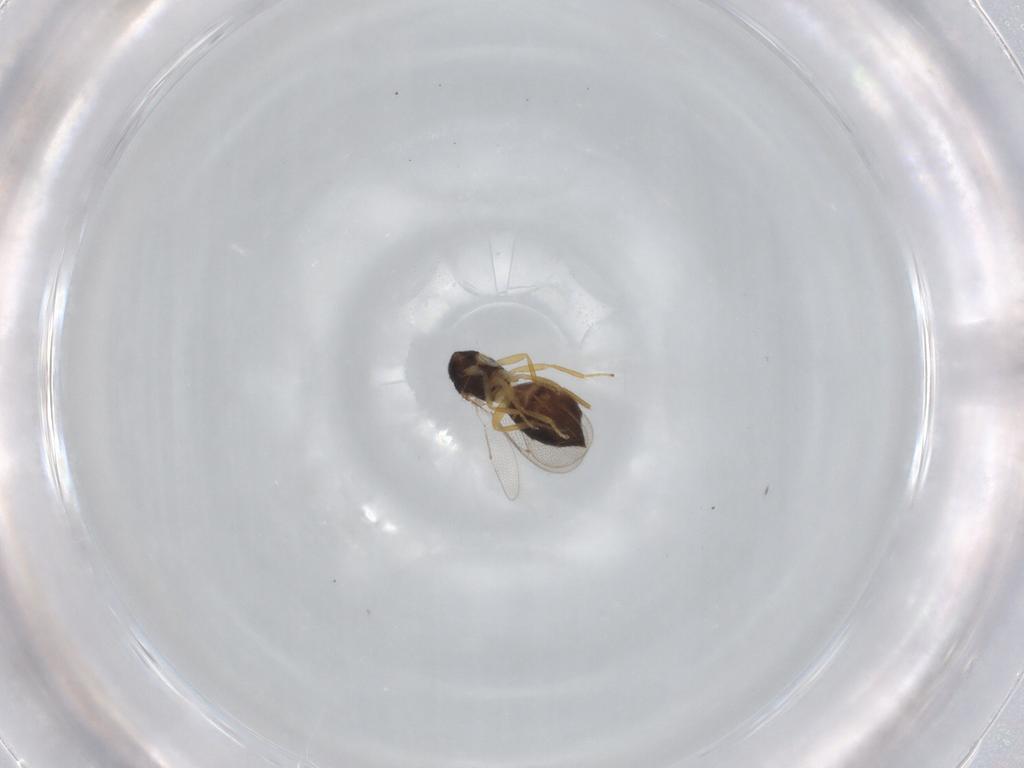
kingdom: Animalia
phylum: Arthropoda
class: Insecta
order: Hymenoptera
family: Eulophidae
